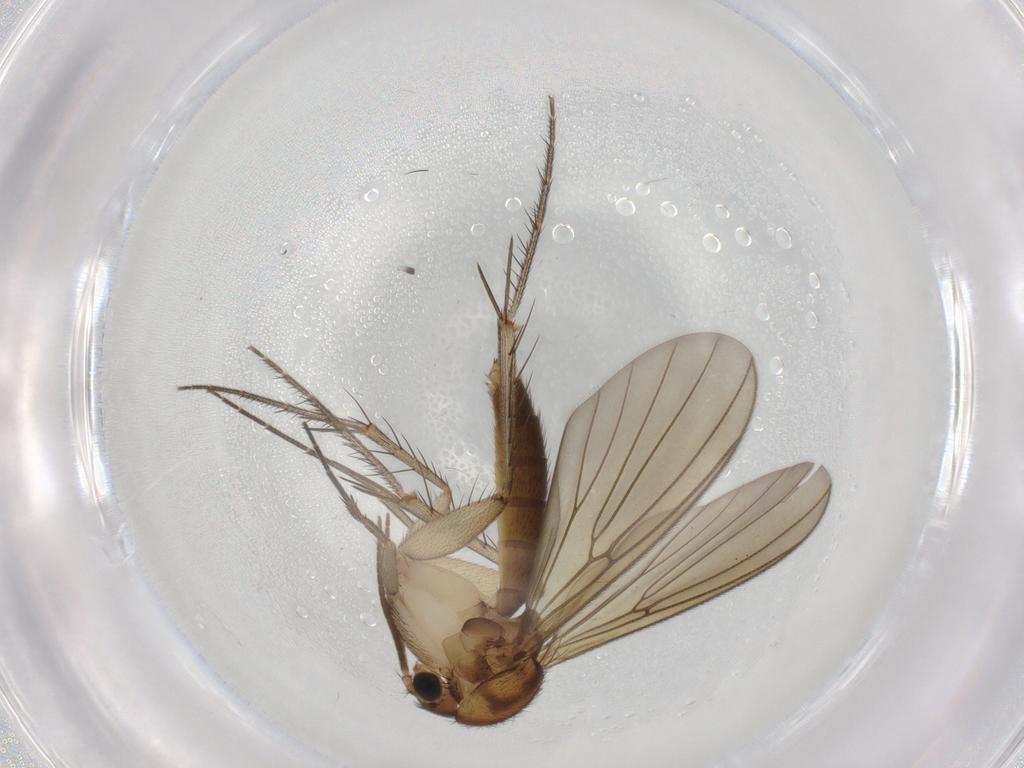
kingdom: Animalia
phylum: Arthropoda
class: Insecta
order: Diptera
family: Mycetophilidae
